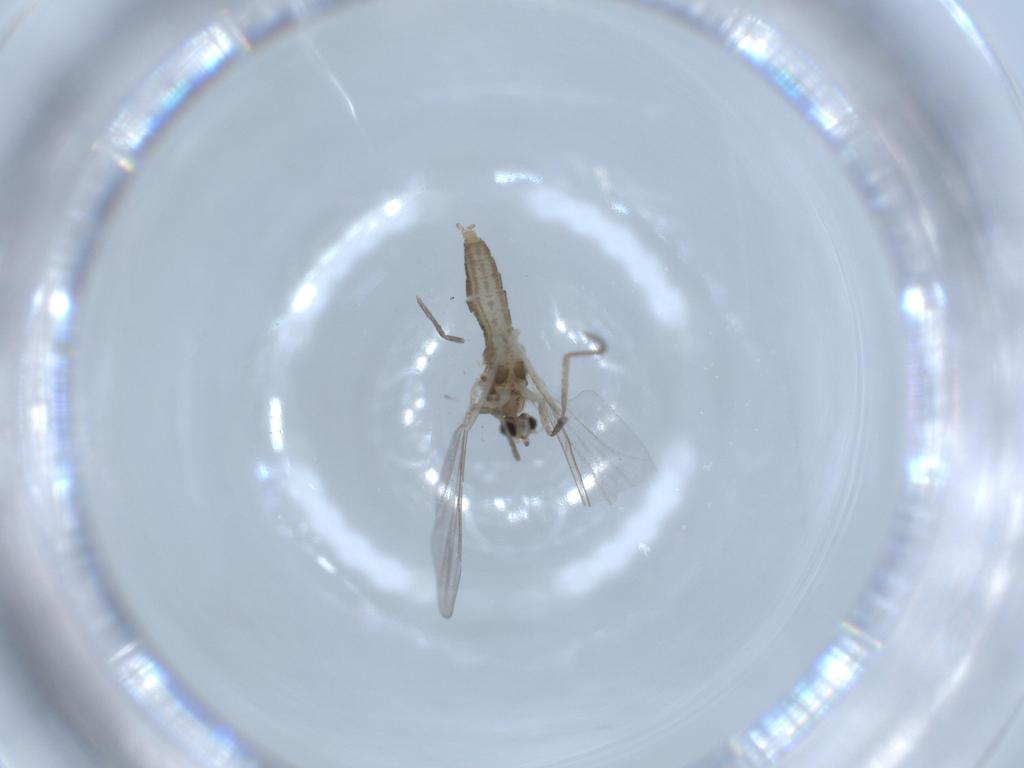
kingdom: Animalia
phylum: Arthropoda
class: Insecta
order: Diptera
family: Cecidomyiidae
